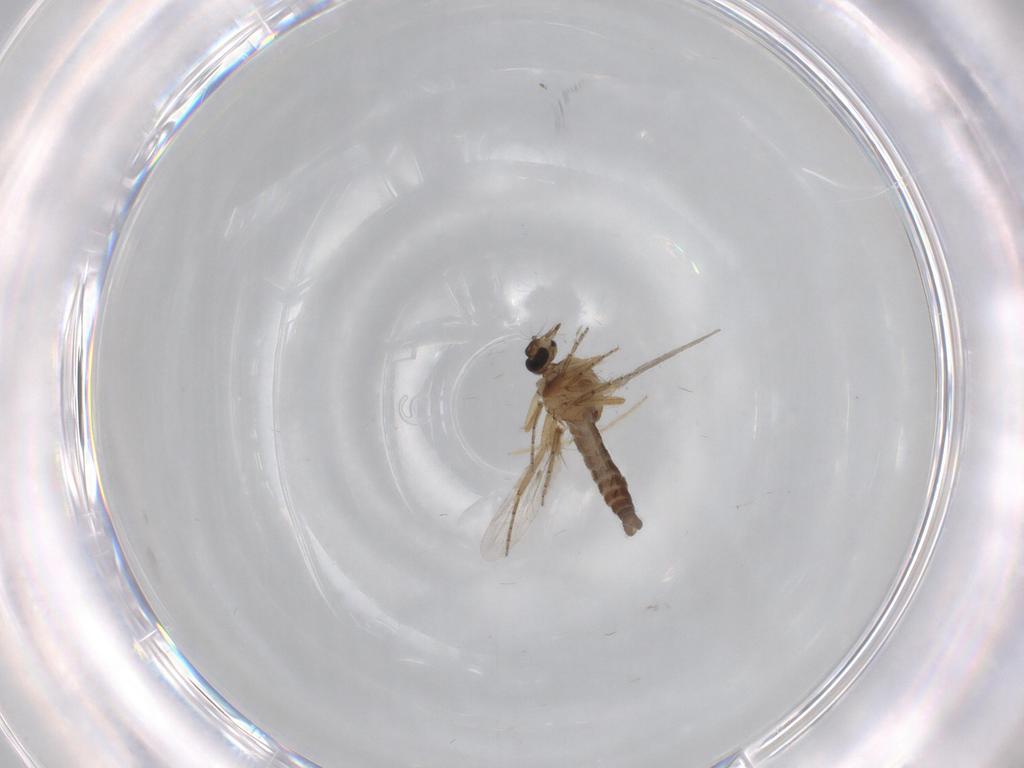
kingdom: Animalia
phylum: Arthropoda
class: Insecta
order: Diptera
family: Ceratopogonidae
